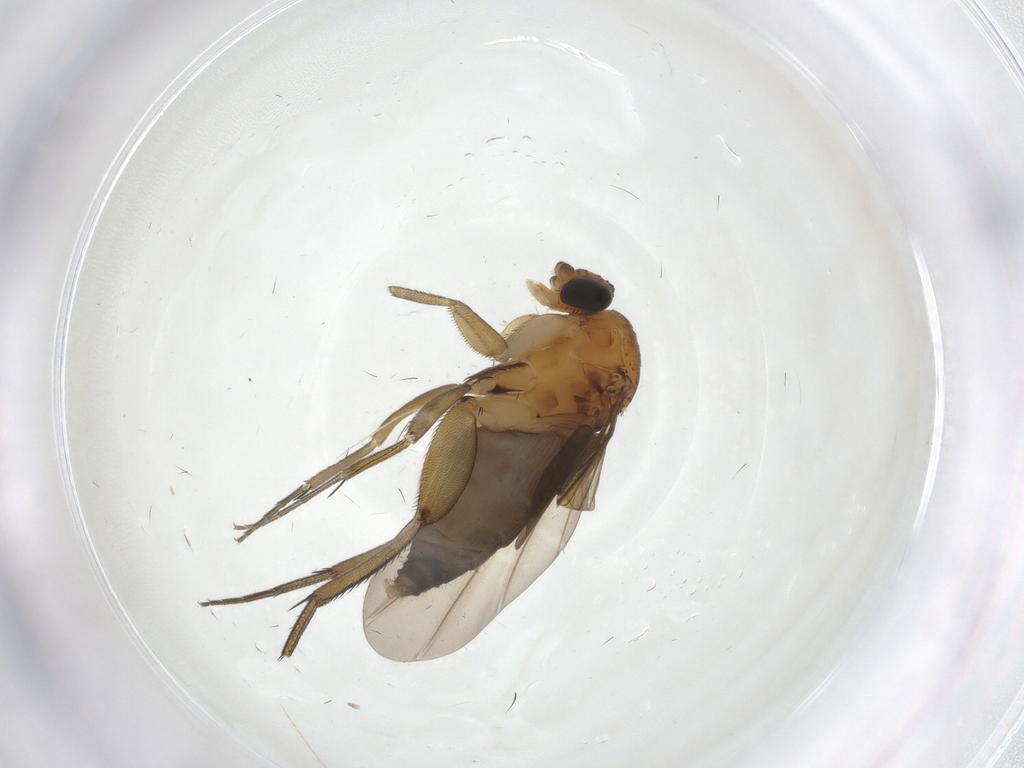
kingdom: Animalia
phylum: Arthropoda
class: Insecta
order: Diptera
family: Phoridae
